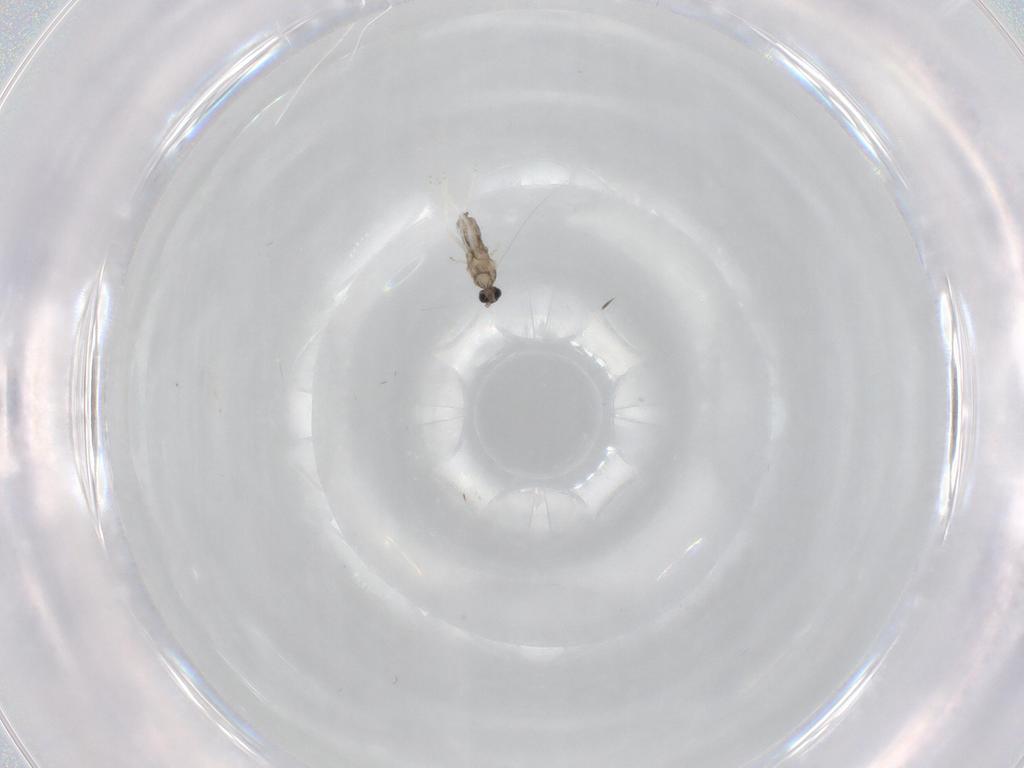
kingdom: Animalia
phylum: Arthropoda
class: Insecta
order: Diptera
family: Cecidomyiidae
